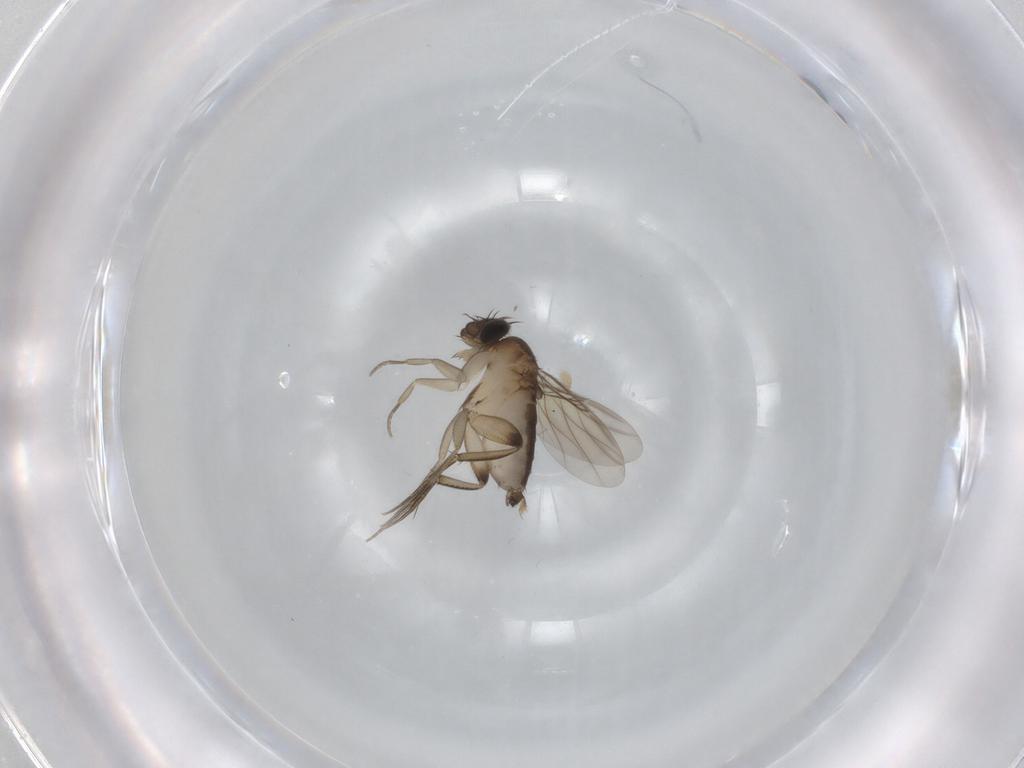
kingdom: Animalia
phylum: Arthropoda
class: Insecta
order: Diptera
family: Phoridae
